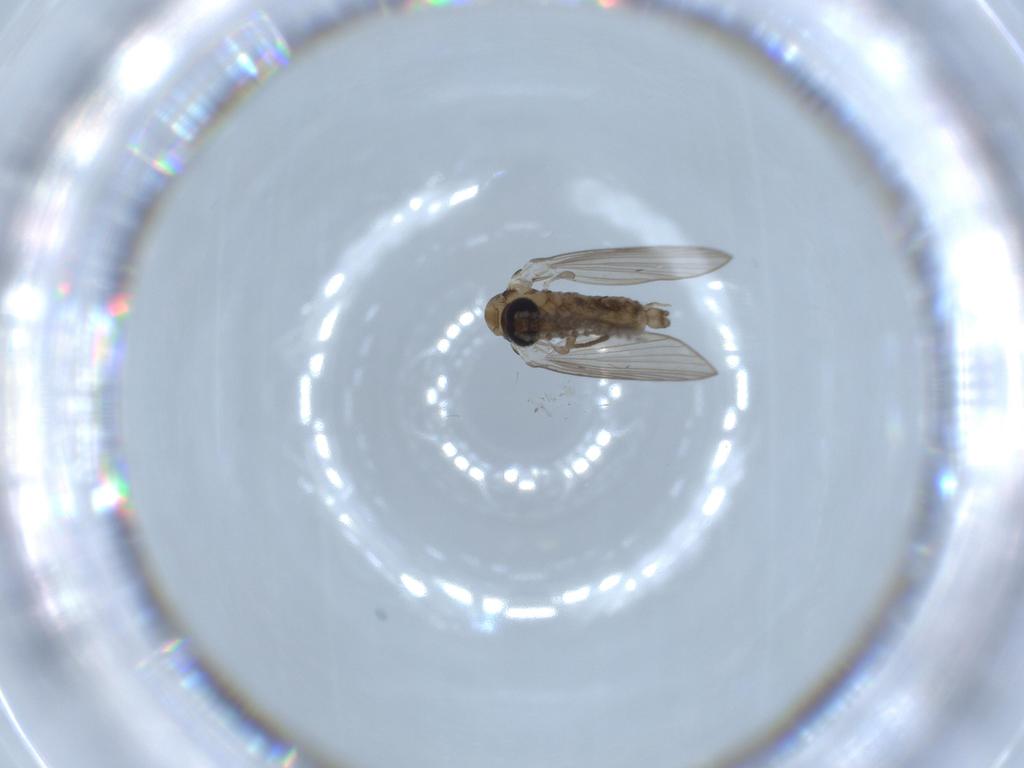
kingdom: Animalia
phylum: Arthropoda
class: Insecta
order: Diptera
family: Psychodidae
